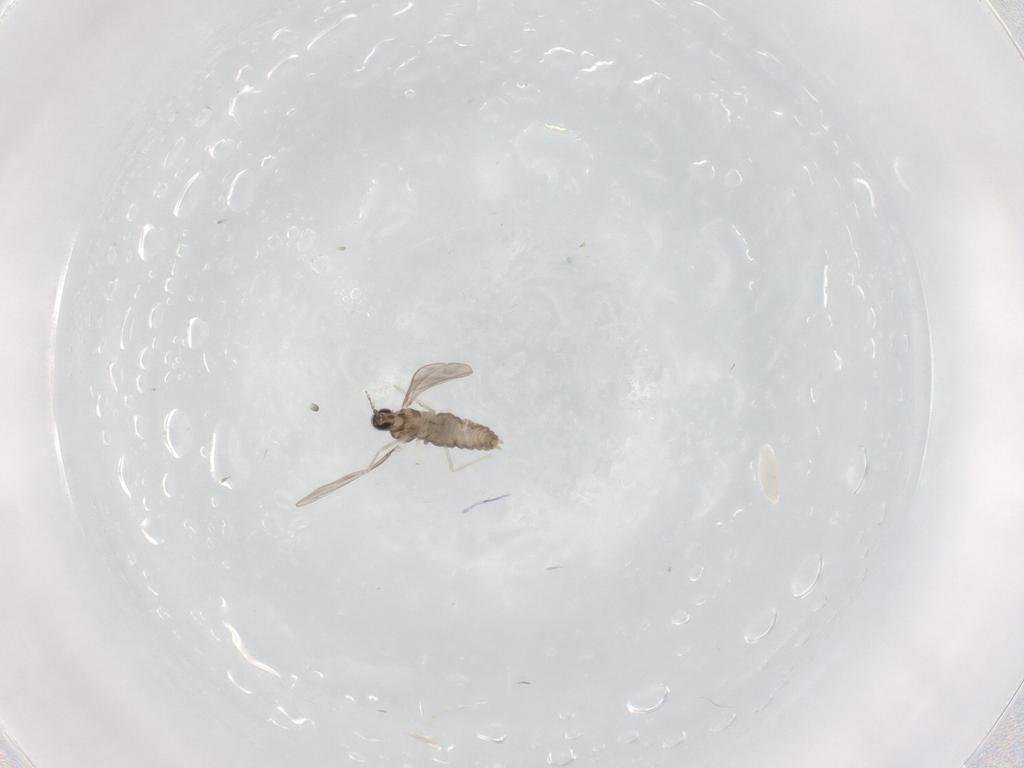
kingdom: Animalia
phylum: Arthropoda
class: Insecta
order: Diptera
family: Cecidomyiidae
